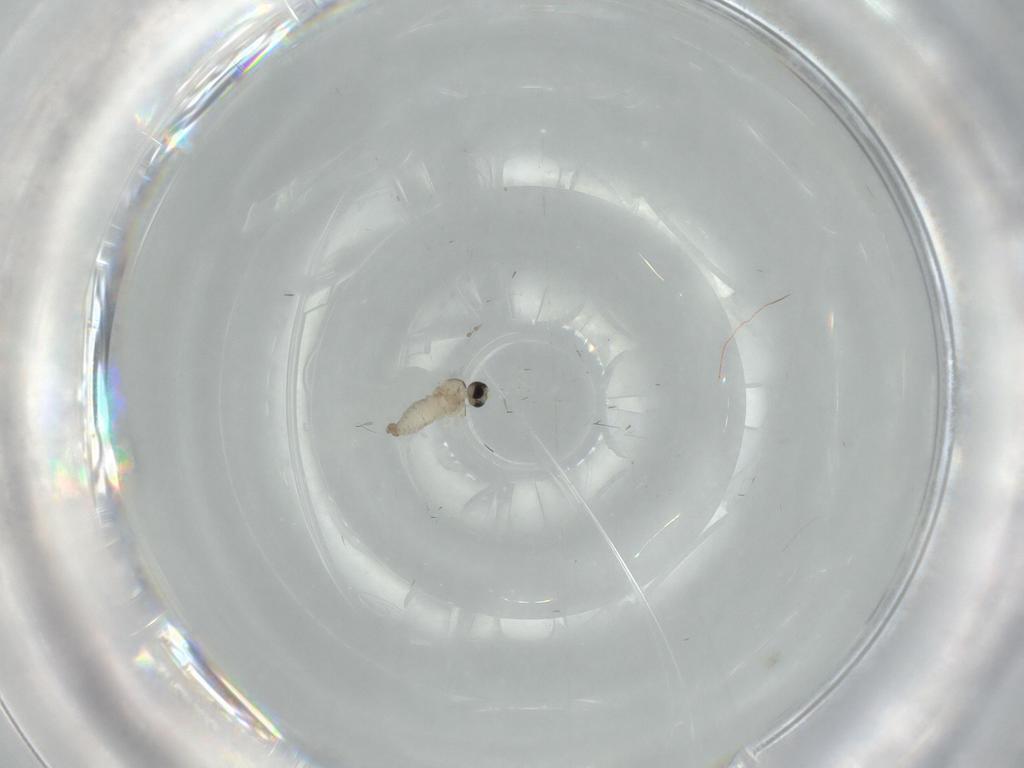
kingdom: Animalia
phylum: Arthropoda
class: Insecta
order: Diptera
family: Cecidomyiidae
